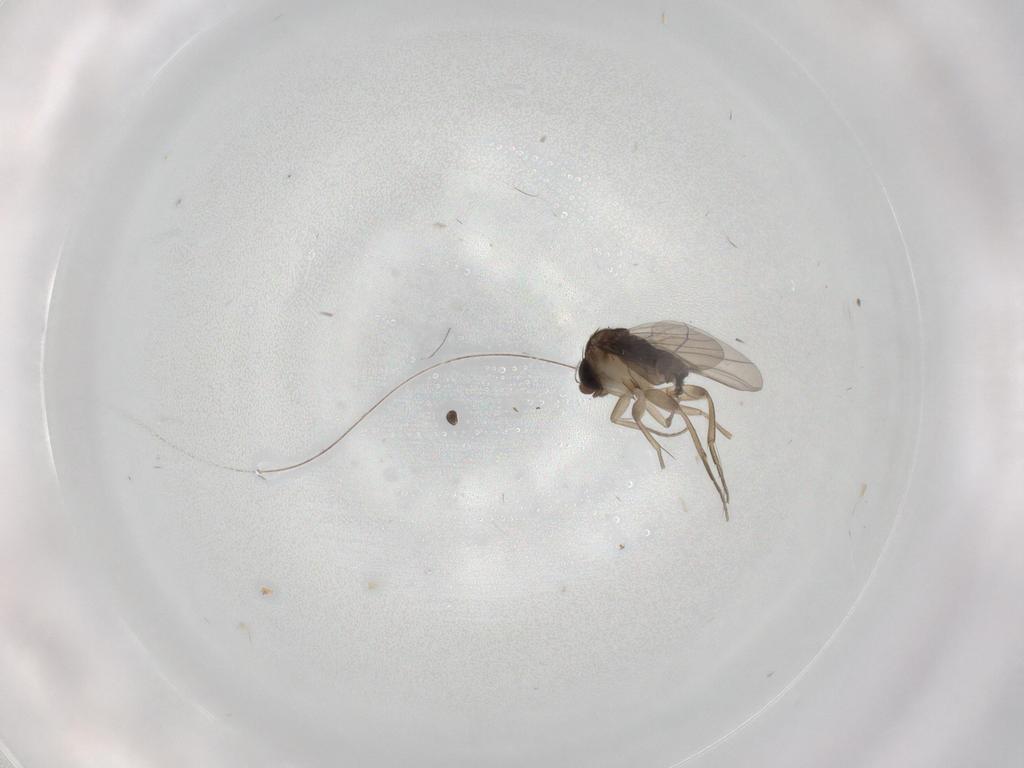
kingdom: Animalia
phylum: Arthropoda
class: Insecta
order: Diptera
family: Phoridae
